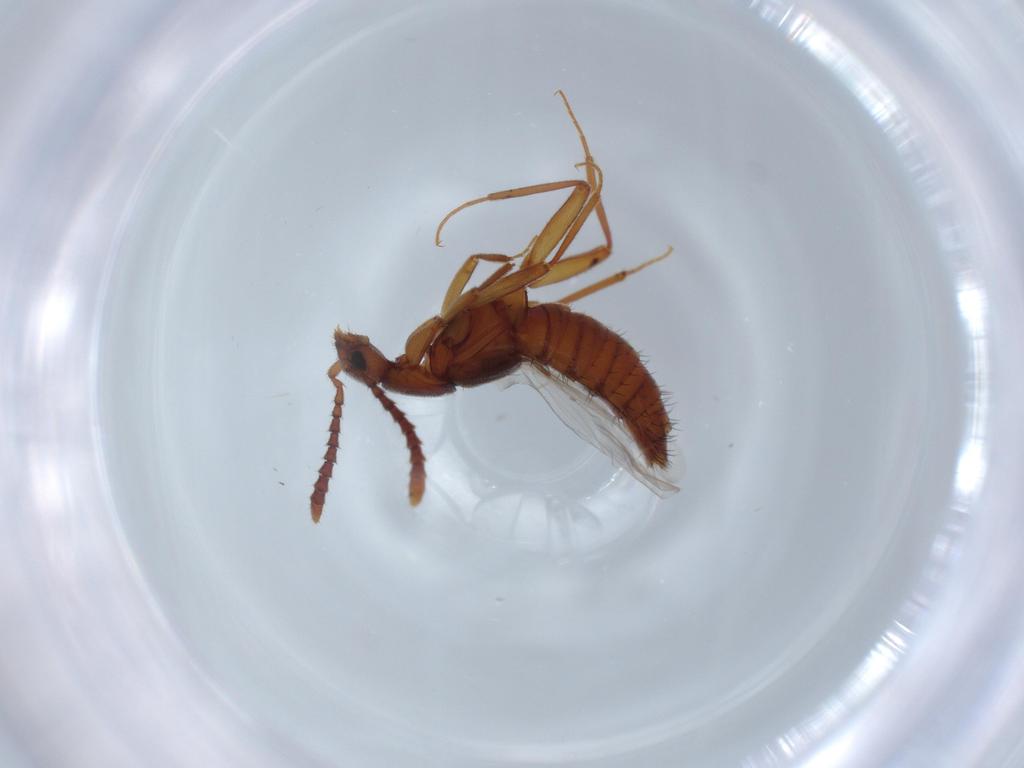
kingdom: Animalia
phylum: Arthropoda
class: Insecta
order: Coleoptera
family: Staphylinidae
